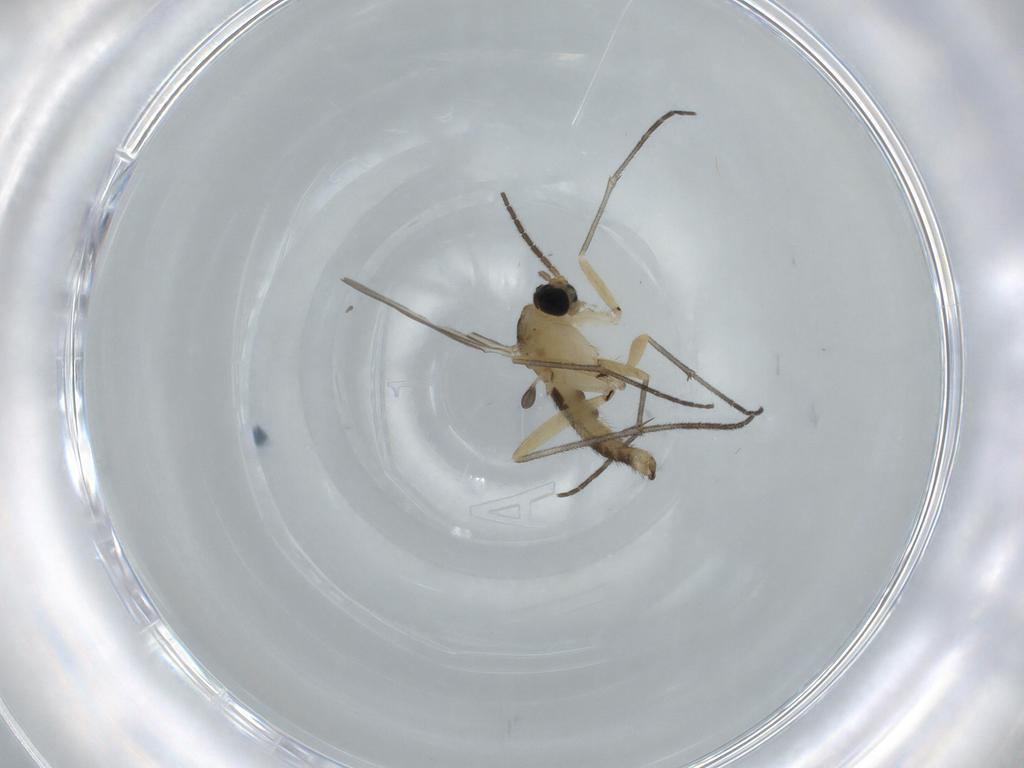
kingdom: Animalia
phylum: Arthropoda
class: Insecta
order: Diptera
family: Sciaridae
